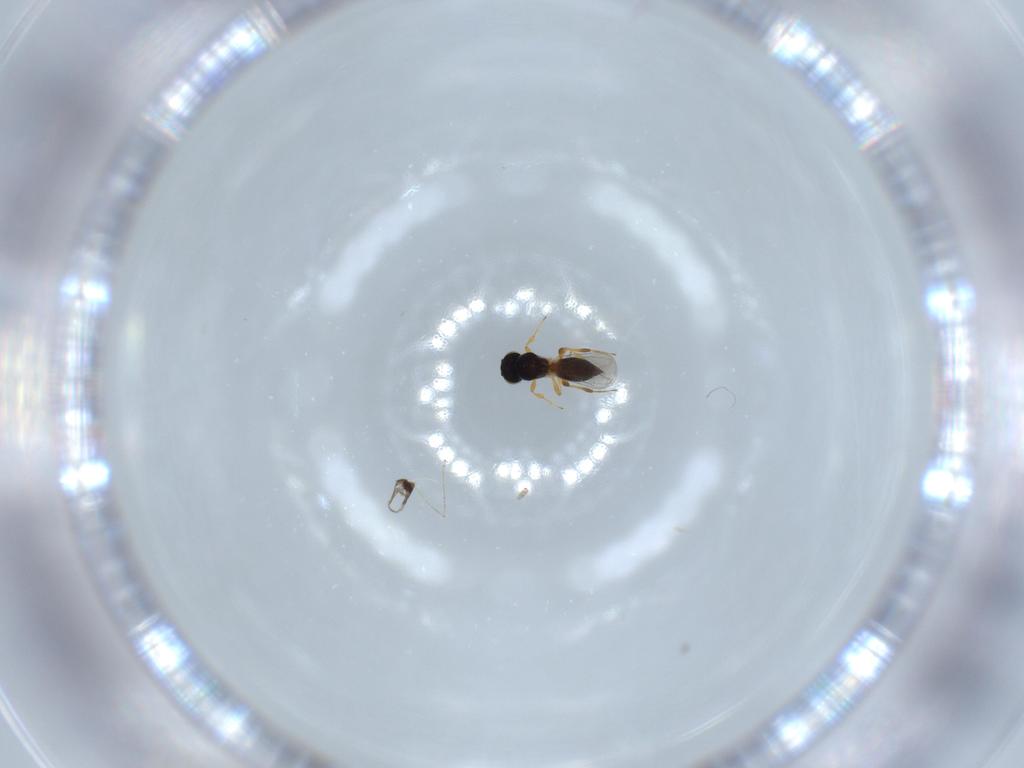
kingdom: Animalia
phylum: Arthropoda
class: Insecta
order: Hymenoptera
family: Platygastridae
